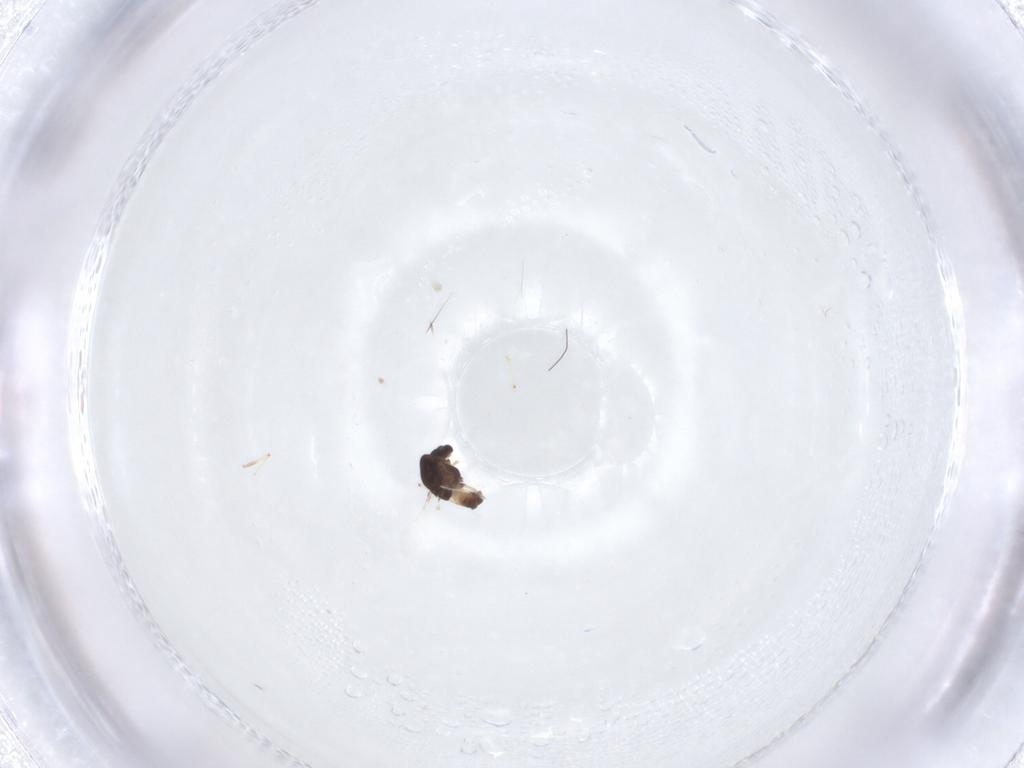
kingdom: Animalia
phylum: Arthropoda
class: Insecta
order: Diptera
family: Chironomidae
